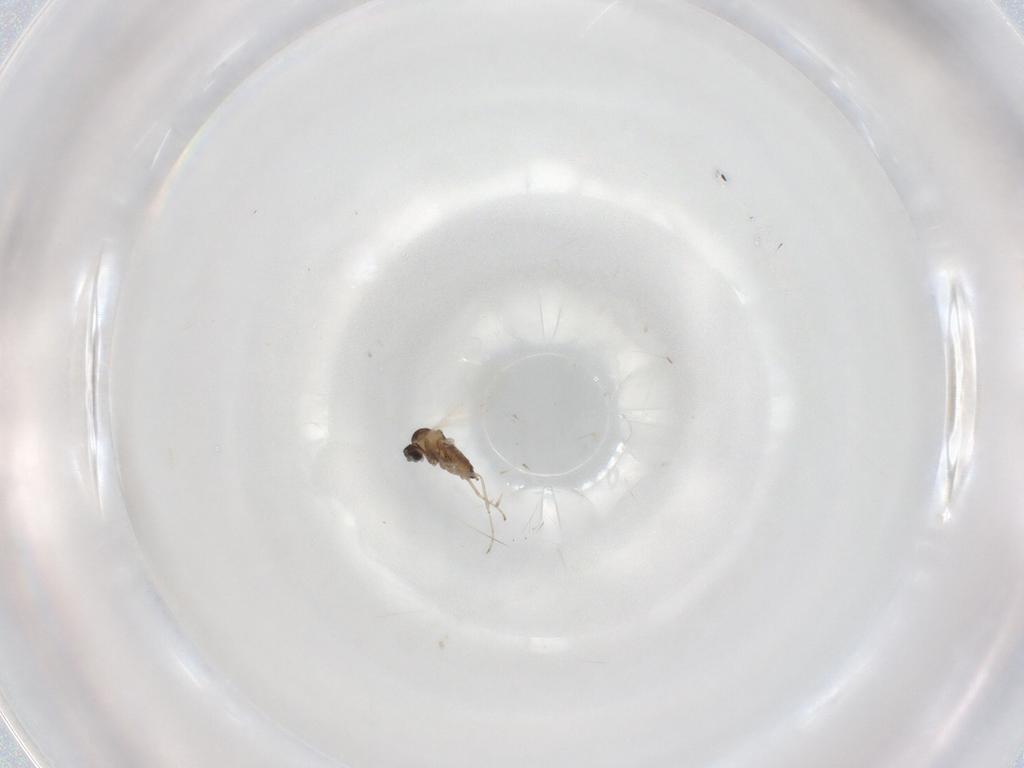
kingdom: Animalia
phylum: Arthropoda
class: Insecta
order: Diptera
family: Cecidomyiidae
